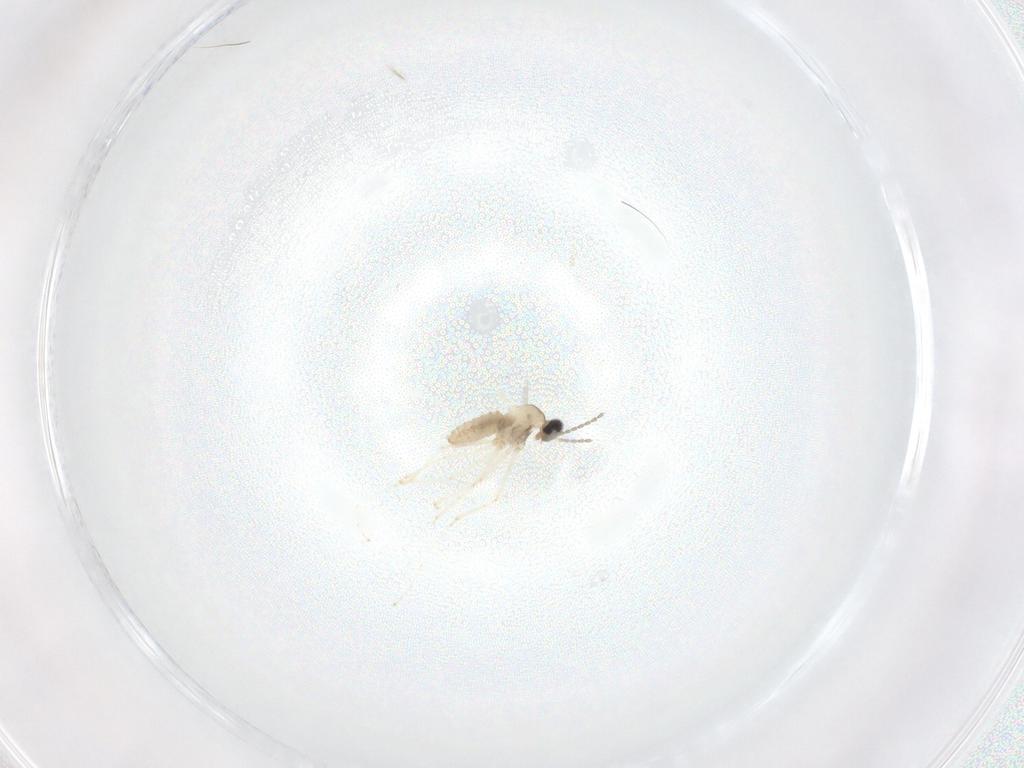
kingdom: Animalia
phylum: Arthropoda
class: Insecta
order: Diptera
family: Cecidomyiidae
